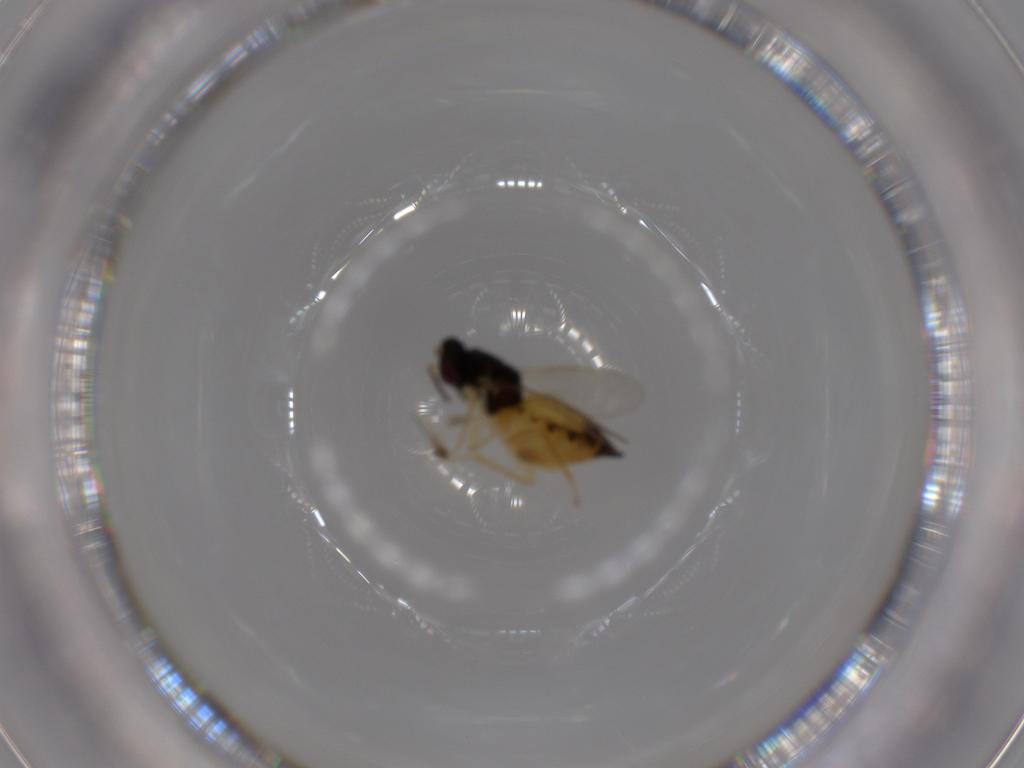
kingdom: Animalia
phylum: Arthropoda
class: Insecta
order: Hymenoptera
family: Eulophidae
